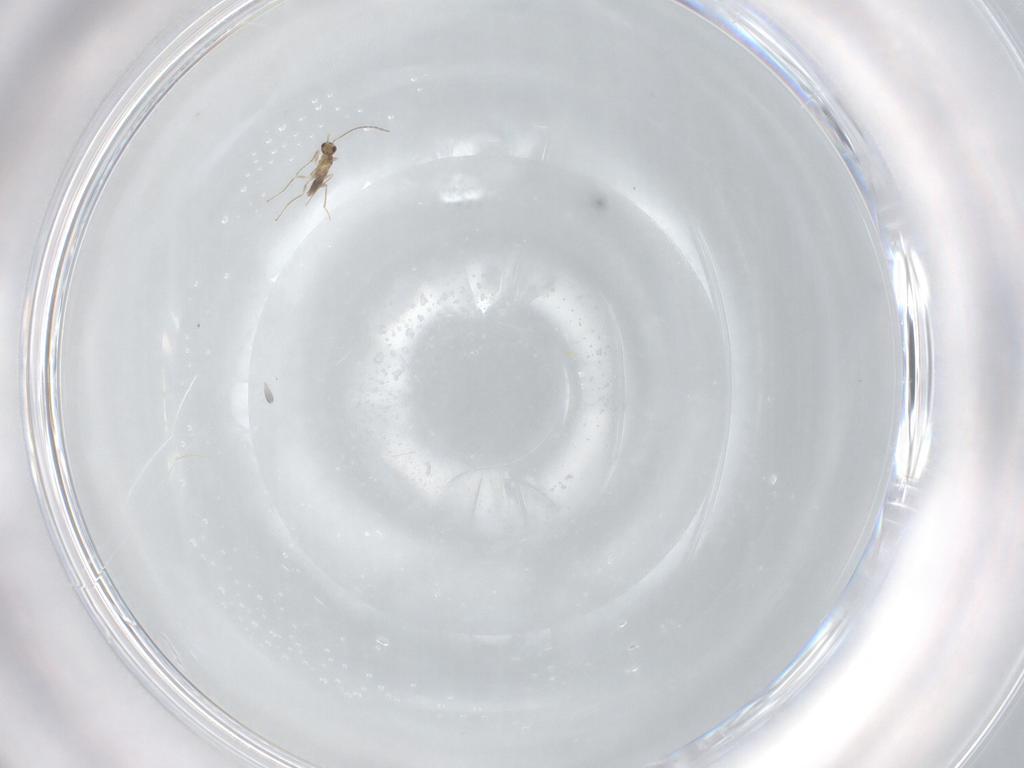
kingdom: Animalia
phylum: Arthropoda
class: Insecta
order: Hymenoptera
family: Mymaridae
